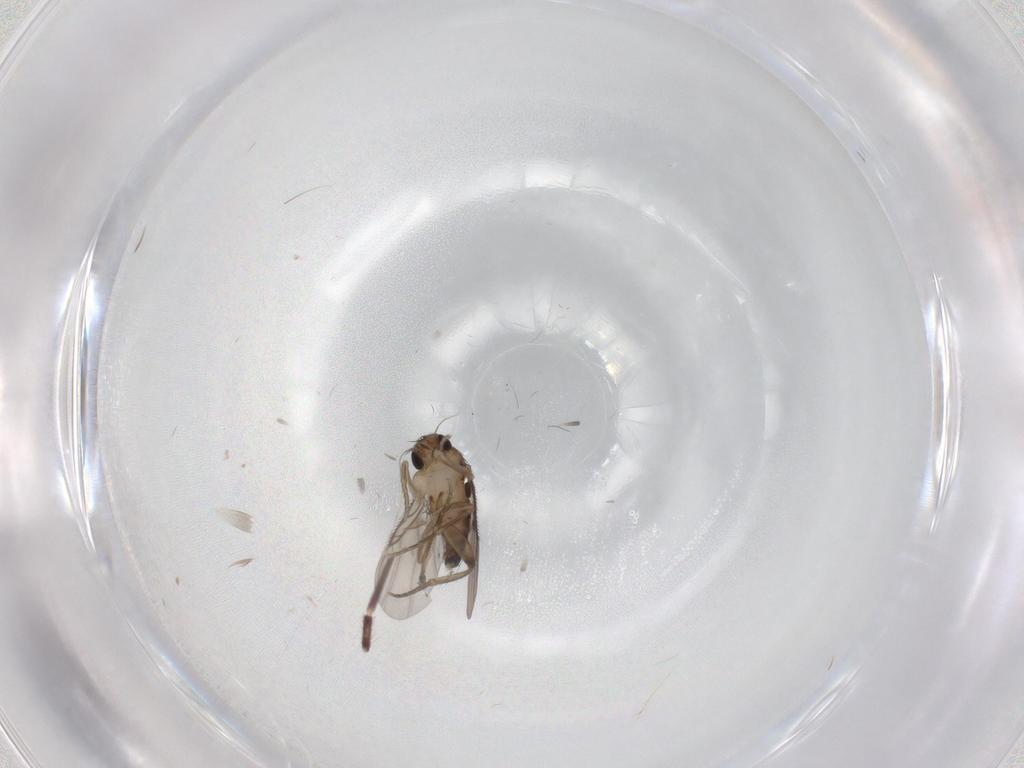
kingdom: Animalia
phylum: Arthropoda
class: Insecta
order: Diptera
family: Phoridae
